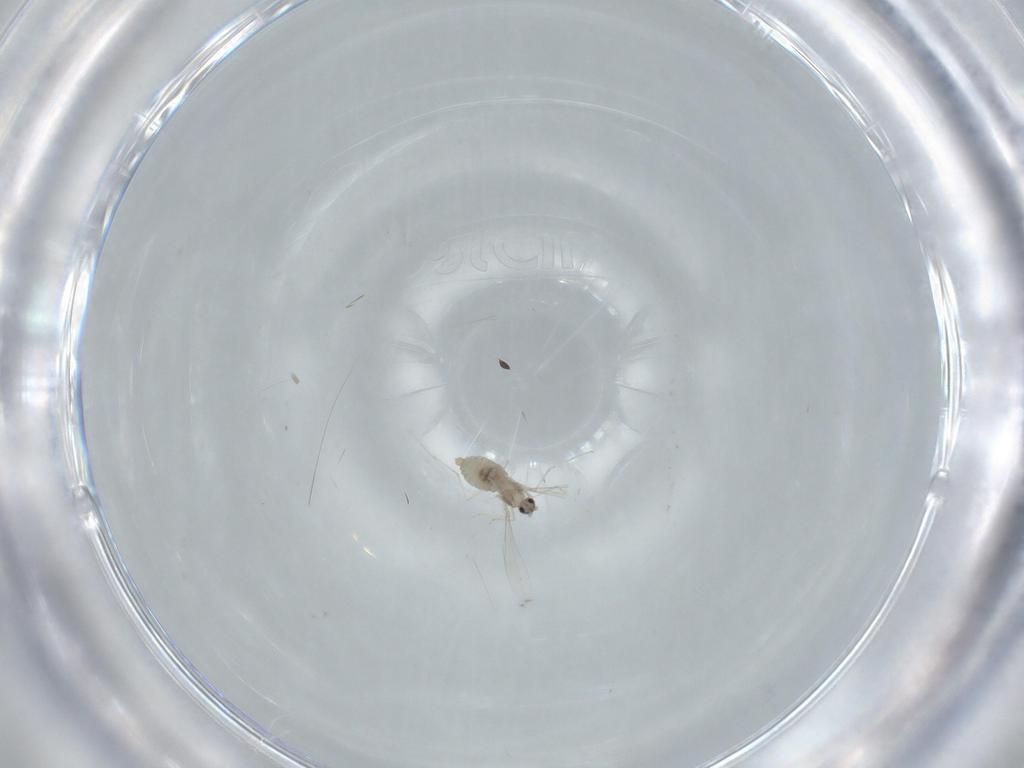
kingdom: Animalia
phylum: Arthropoda
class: Insecta
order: Diptera
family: Cecidomyiidae
